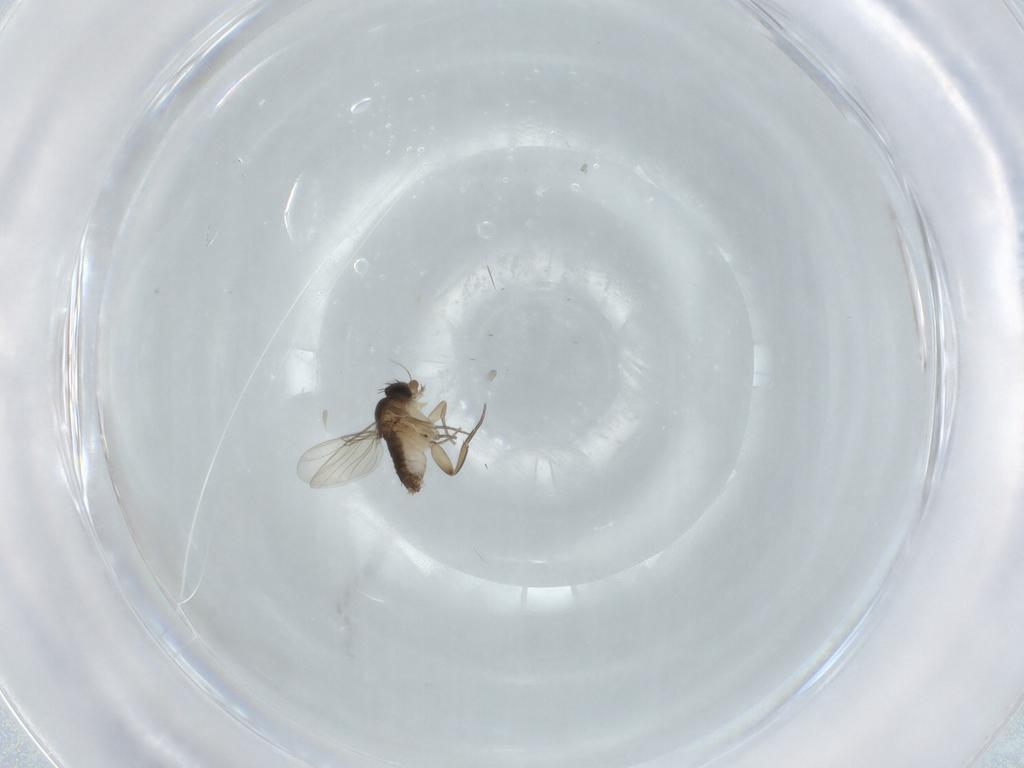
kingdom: Animalia
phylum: Arthropoda
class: Insecta
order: Diptera
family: Phoridae
